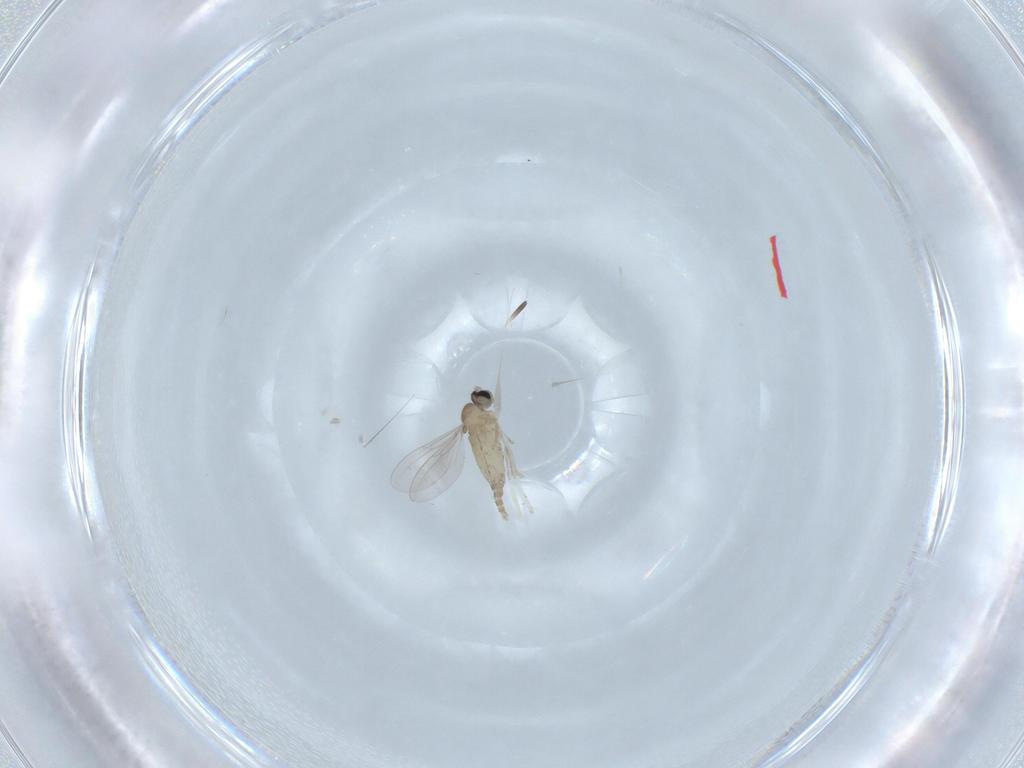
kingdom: Animalia
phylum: Arthropoda
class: Insecta
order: Diptera
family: Cecidomyiidae
